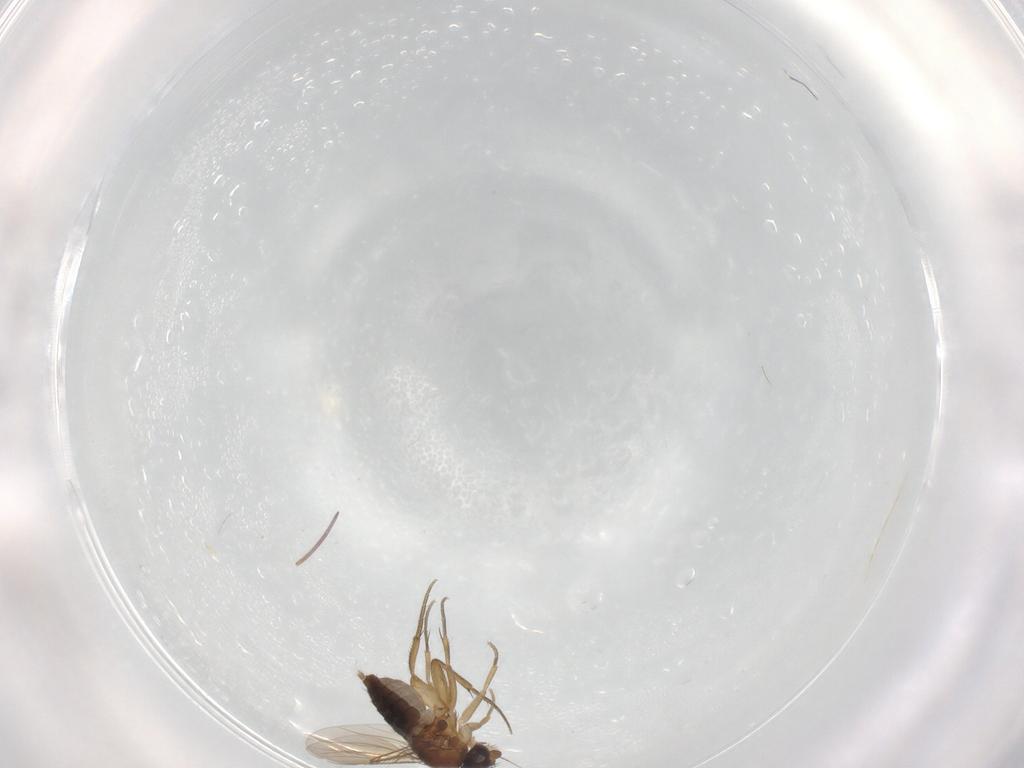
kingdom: Animalia
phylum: Arthropoda
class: Insecta
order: Diptera
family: Phoridae
